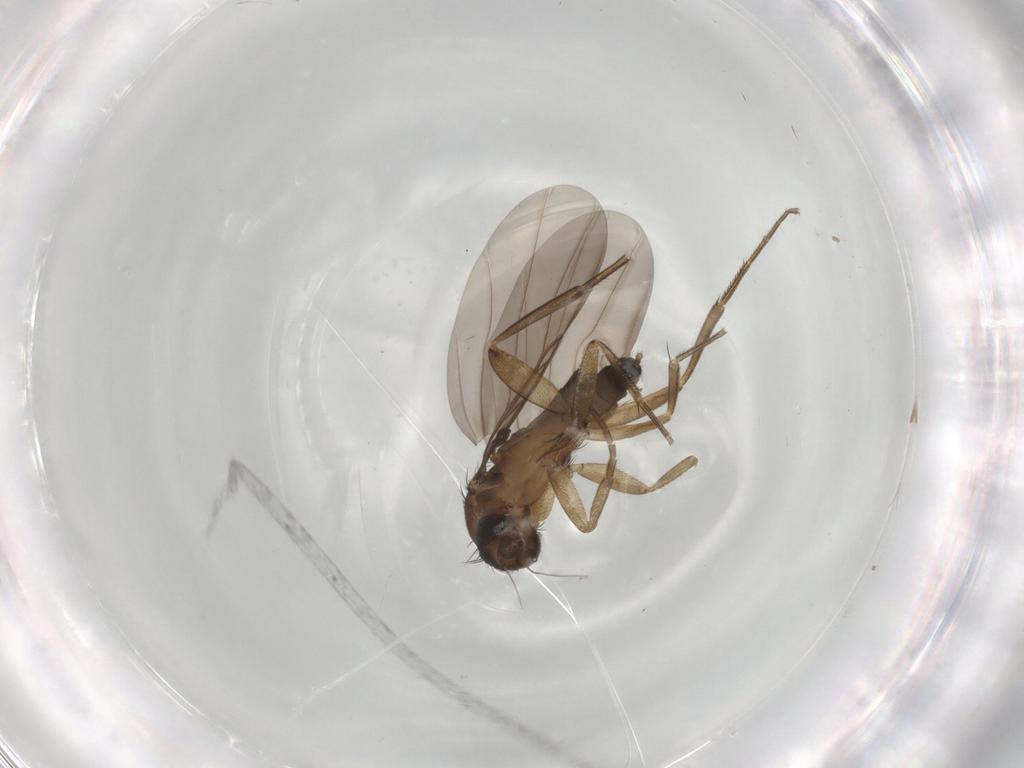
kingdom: Animalia
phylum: Arthropoda
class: Insecta
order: Diptera
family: Phoridae
